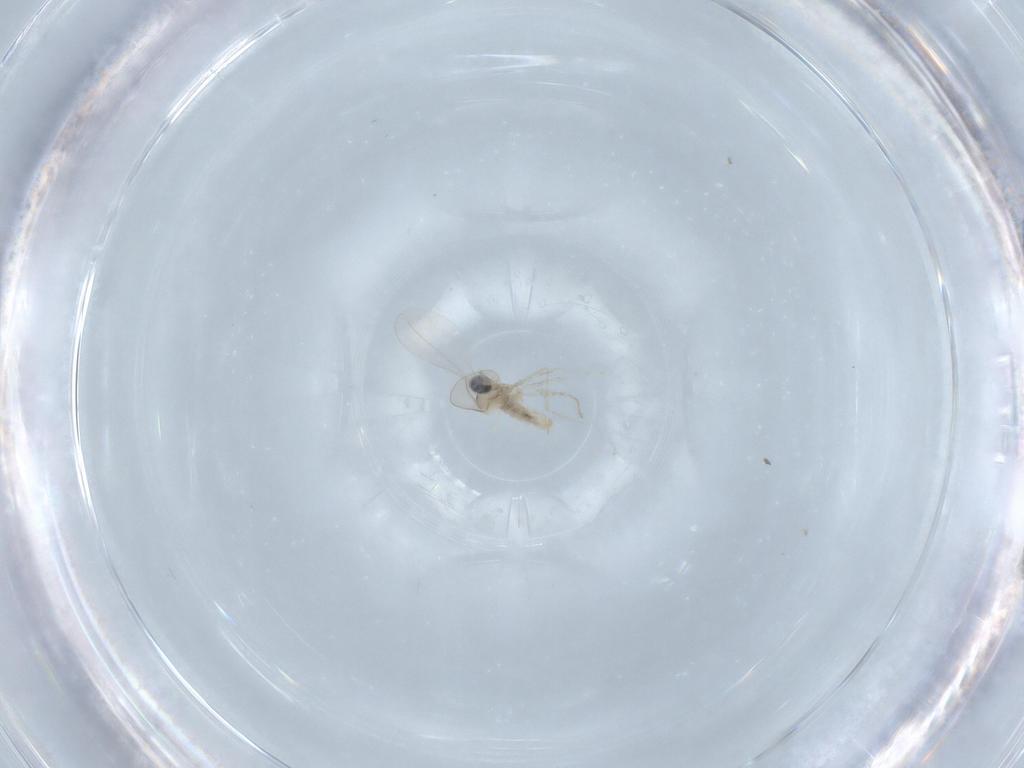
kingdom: Animalia
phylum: Arthropoda
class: Insecta
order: Diptera
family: Cecidomyiidae
